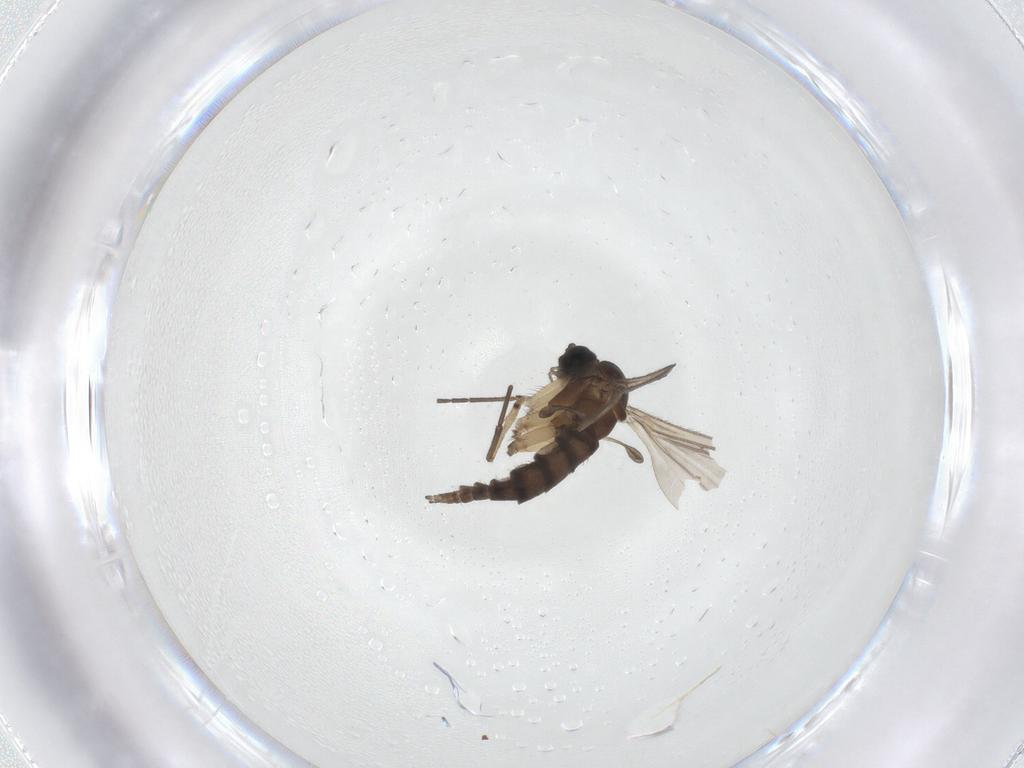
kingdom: Animalia
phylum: Arthropoda
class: Insecta
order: Diptera
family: Sciaridae
